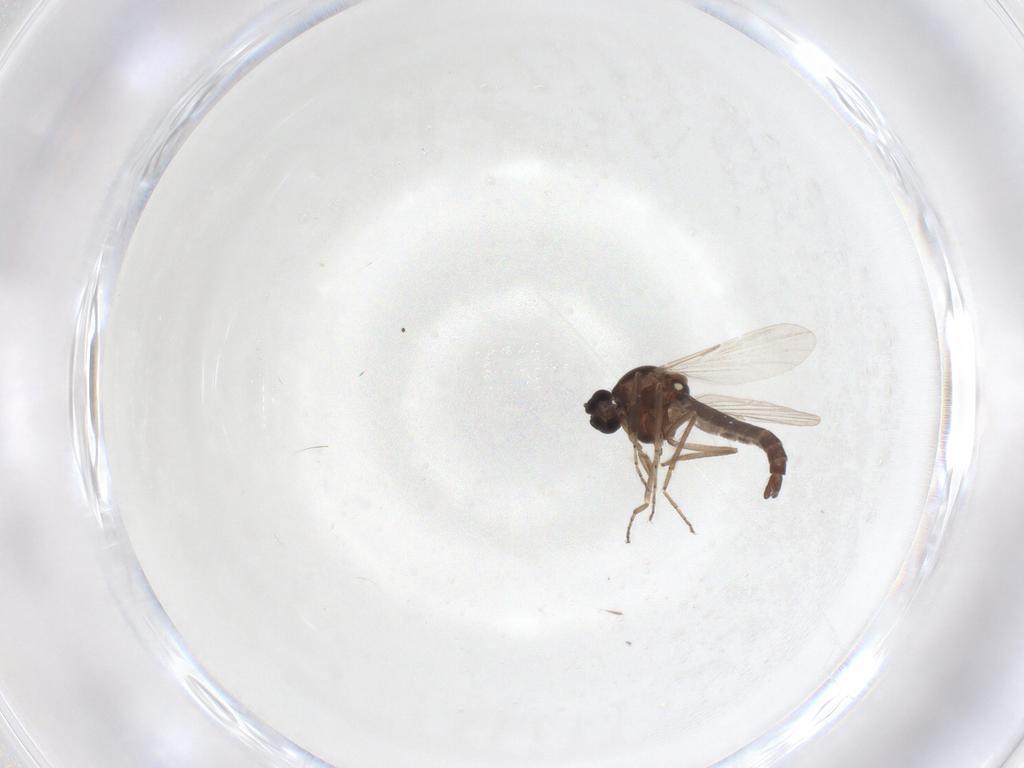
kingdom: Animalia
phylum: Arthropoda
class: Insecta
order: Diptera
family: Ceratopogonidae
